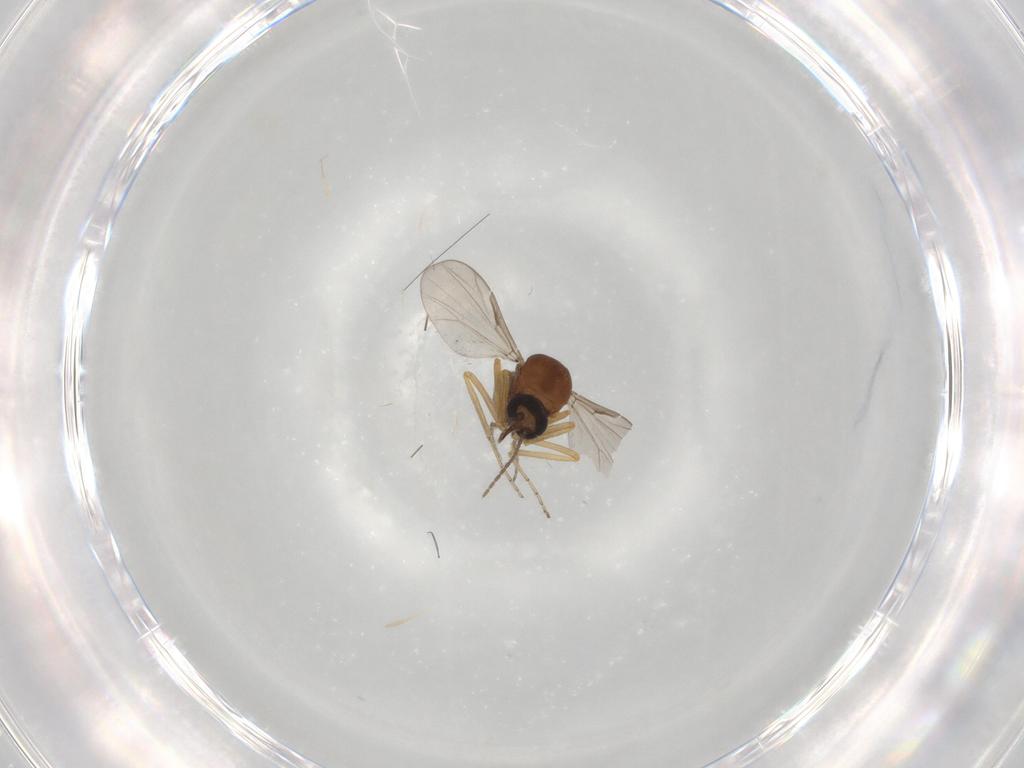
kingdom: Animalia
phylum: Arthropoda
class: Insecta
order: Diptera
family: Ceratopogonidae
